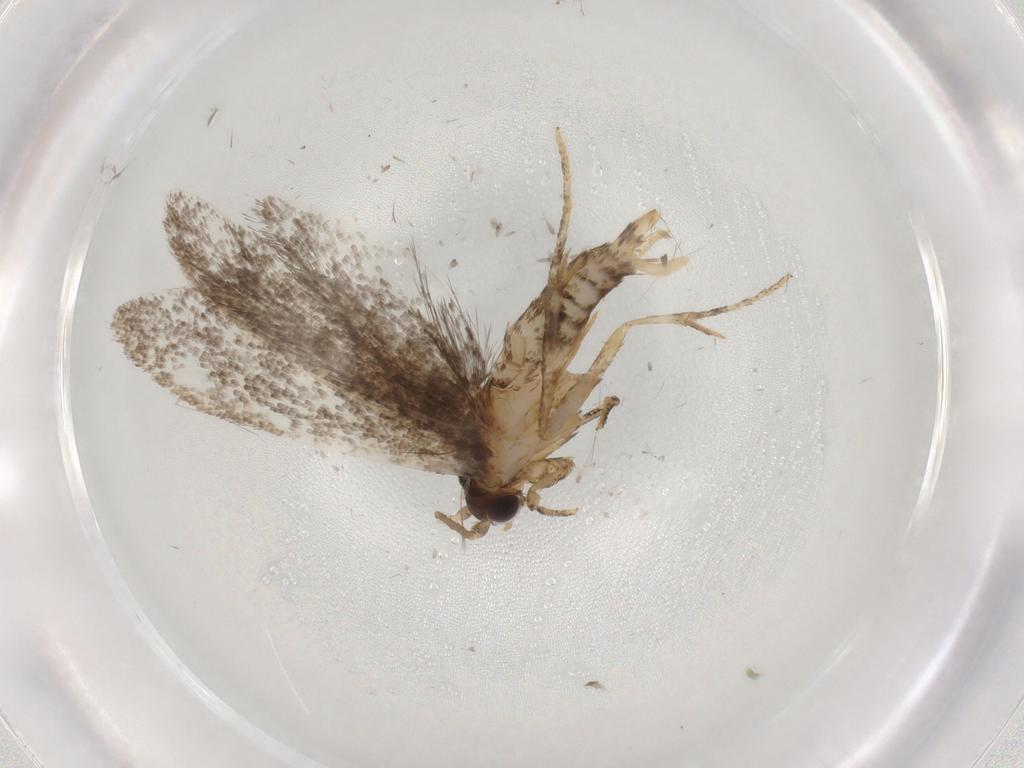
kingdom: Animalia
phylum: Arthropoda
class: Insecta
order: Lepidoptera
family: Tineidae
